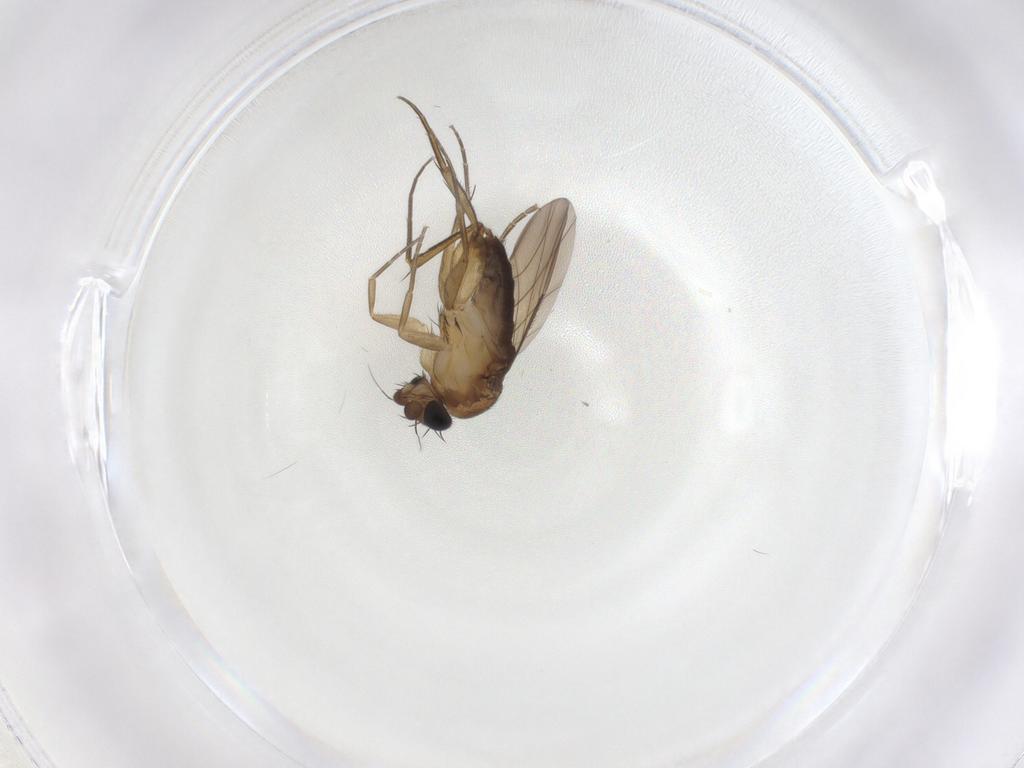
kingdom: Animalia
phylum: Arthropoda
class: Insecta
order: Diptera
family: Phoridae
